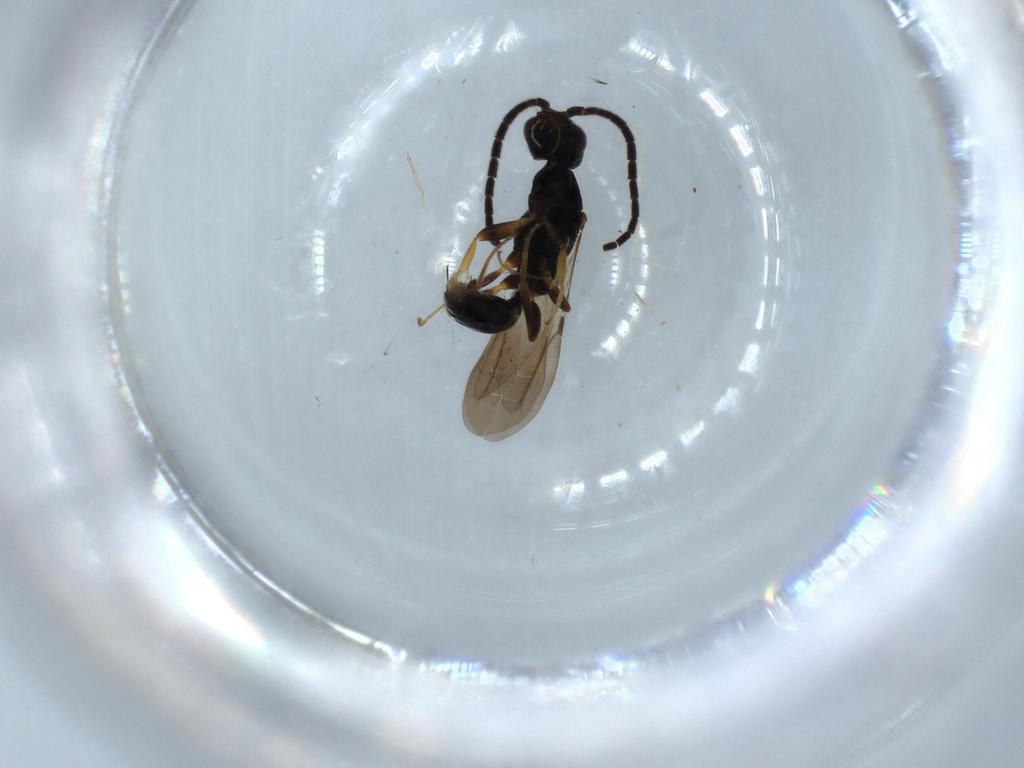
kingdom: Animalia
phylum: Arthropoda
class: Insecta
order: Hymenoptera
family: Bethylidae
